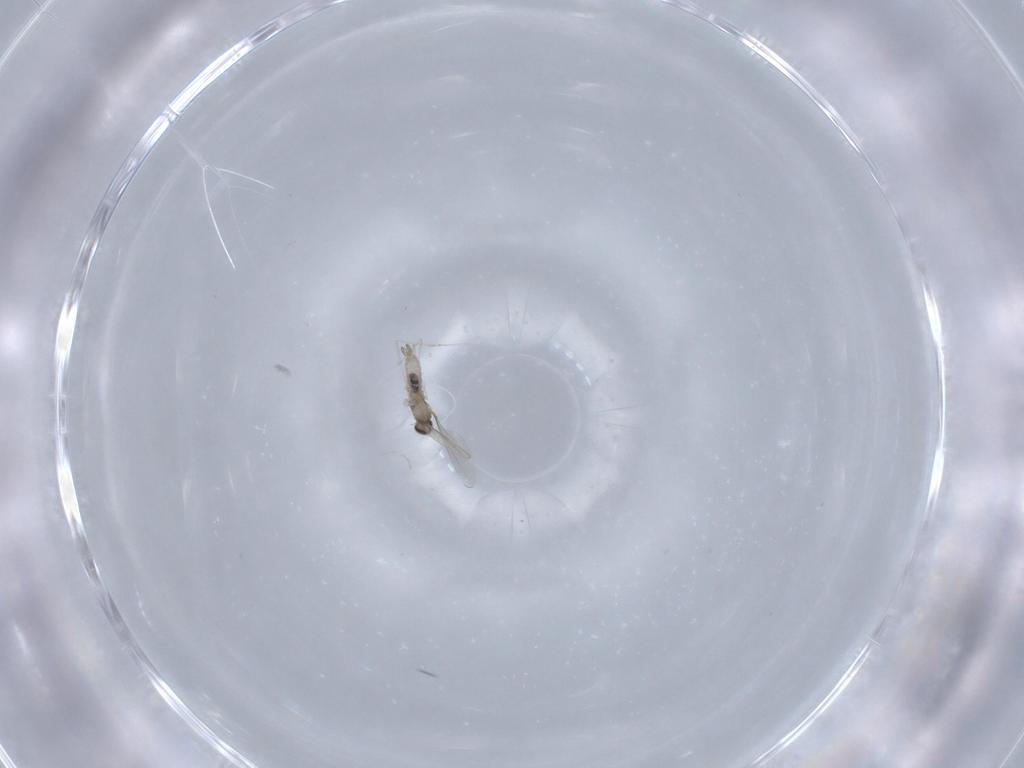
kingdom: Animalia
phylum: Arthropoda
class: Insecta
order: Diptera
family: Cecidomyiidae
